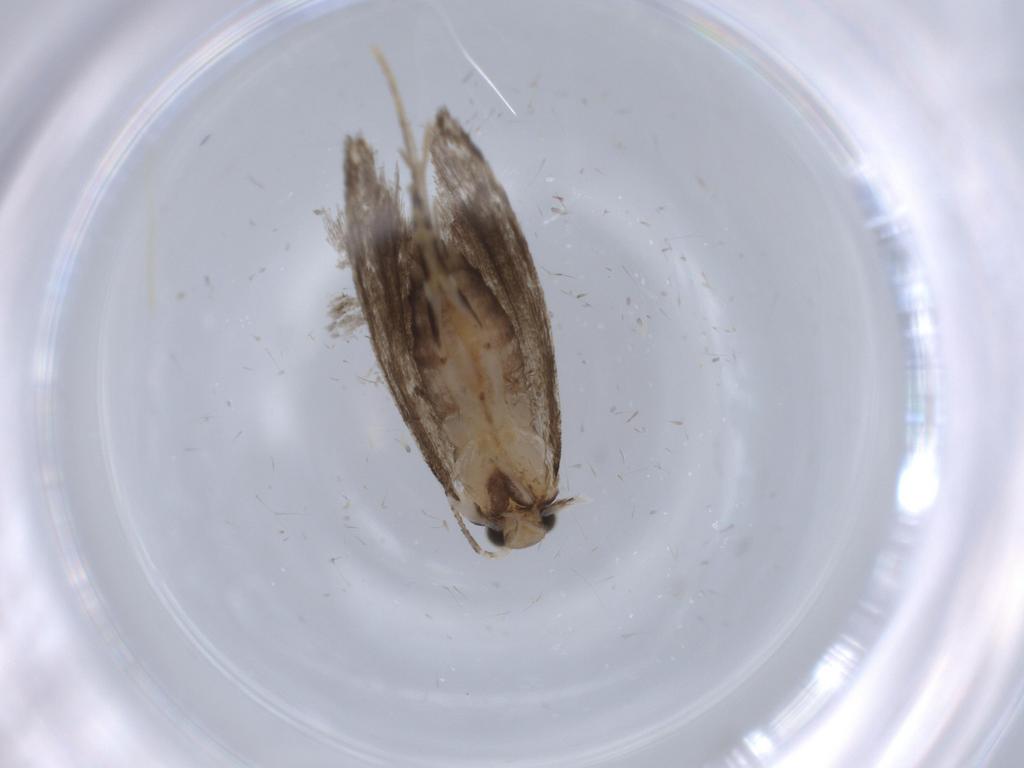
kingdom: Animalia
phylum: Arthropoda
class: Insecta
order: Lepidoptera
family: Tineidae
